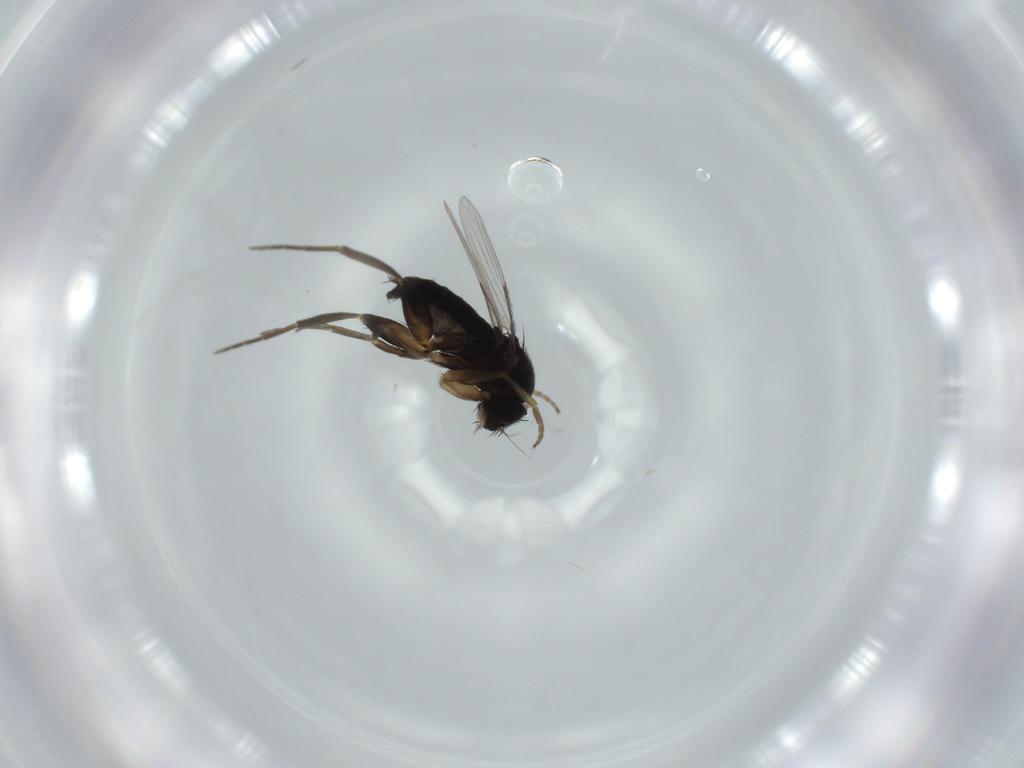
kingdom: Animalia
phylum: Arthropoda
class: Insecta
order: Diptera
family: Phoridae
